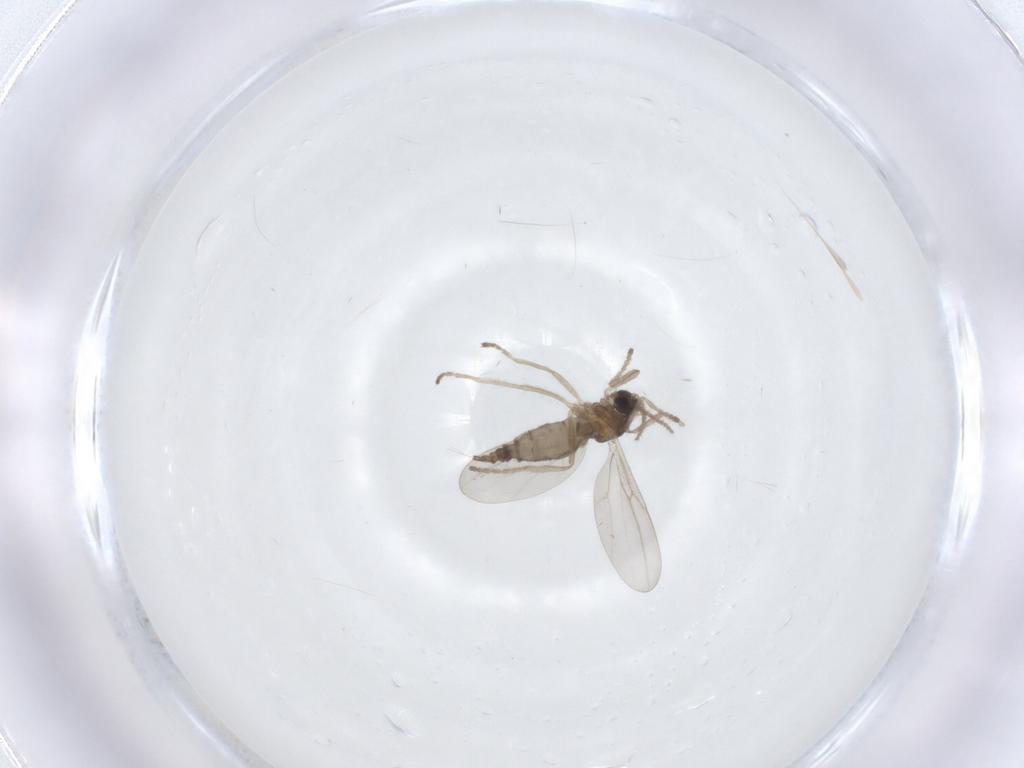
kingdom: Animalia
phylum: Arthropoda
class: Insecta
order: Diptera
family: Cecidomyiidae
